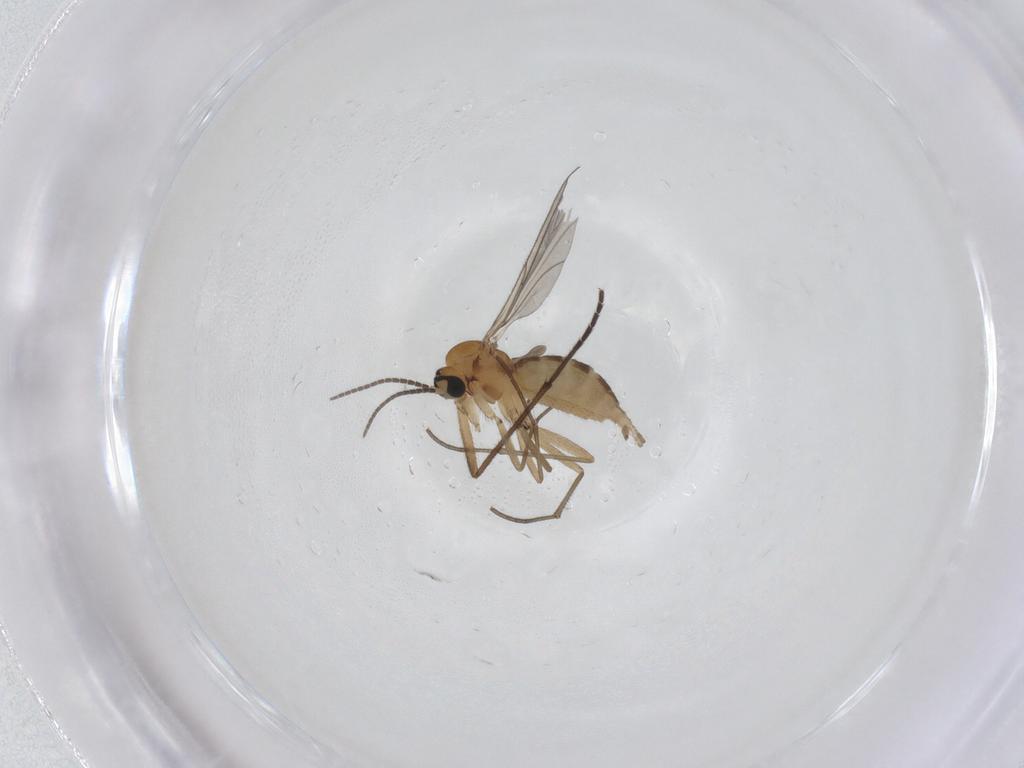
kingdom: Animalia
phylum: Arthropoda
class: Insecta
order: Diptera
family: Sciaridae
